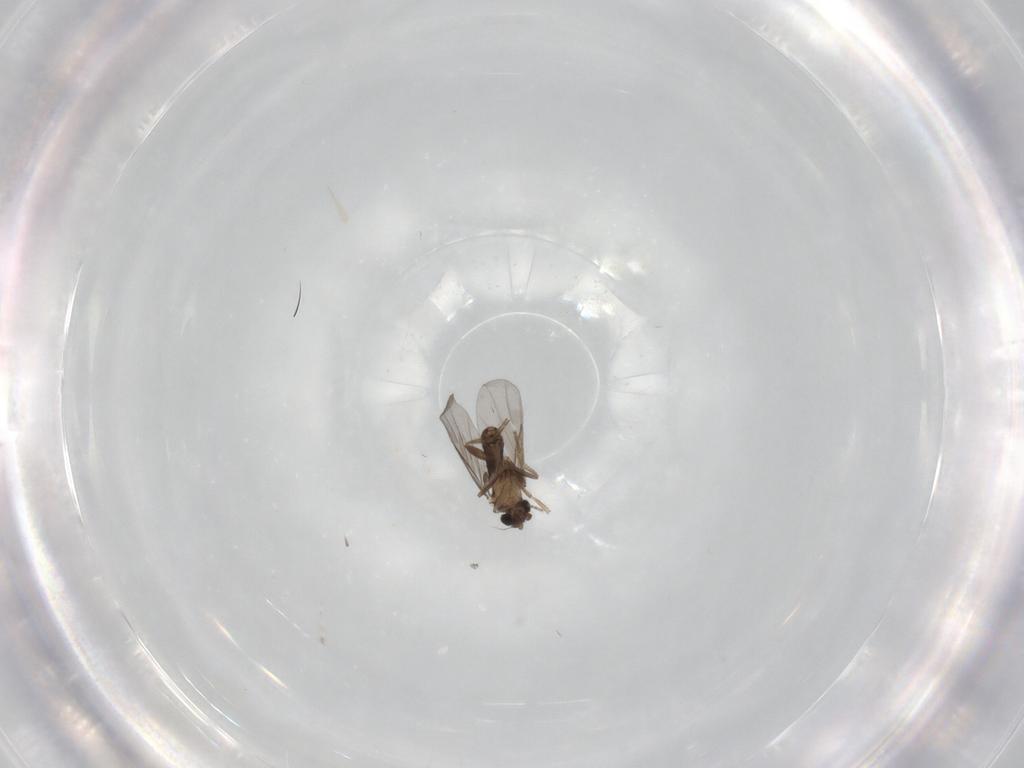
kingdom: Animalia
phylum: Arthropoda
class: Insecta
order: Diptera
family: Phoridae
